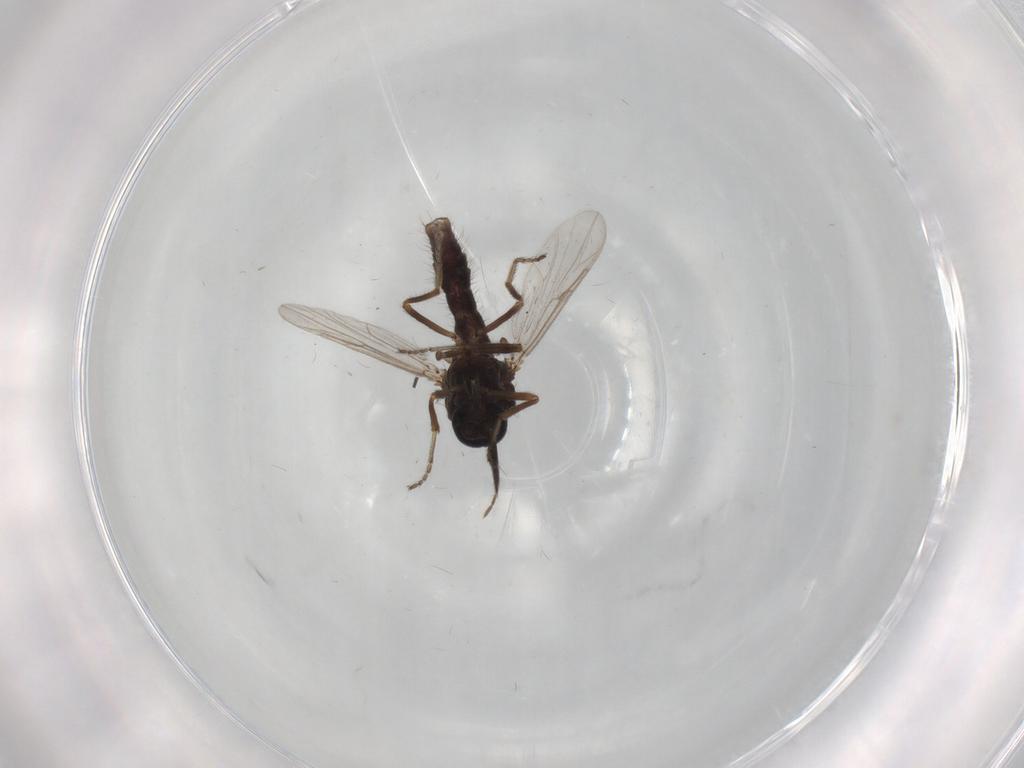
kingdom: Animalia
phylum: Arthropoda
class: Insecta
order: Diptera
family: Ceratopogonidae
